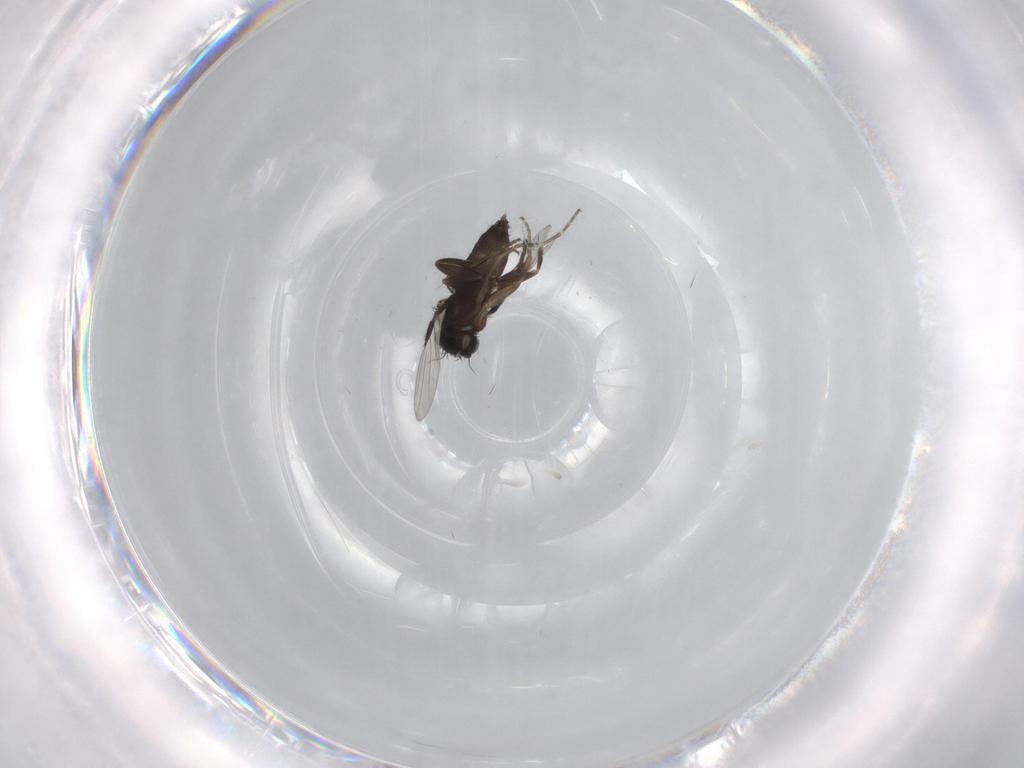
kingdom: Animalia
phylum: Arthropoda
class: Insecta
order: Diptera
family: Phoridae
